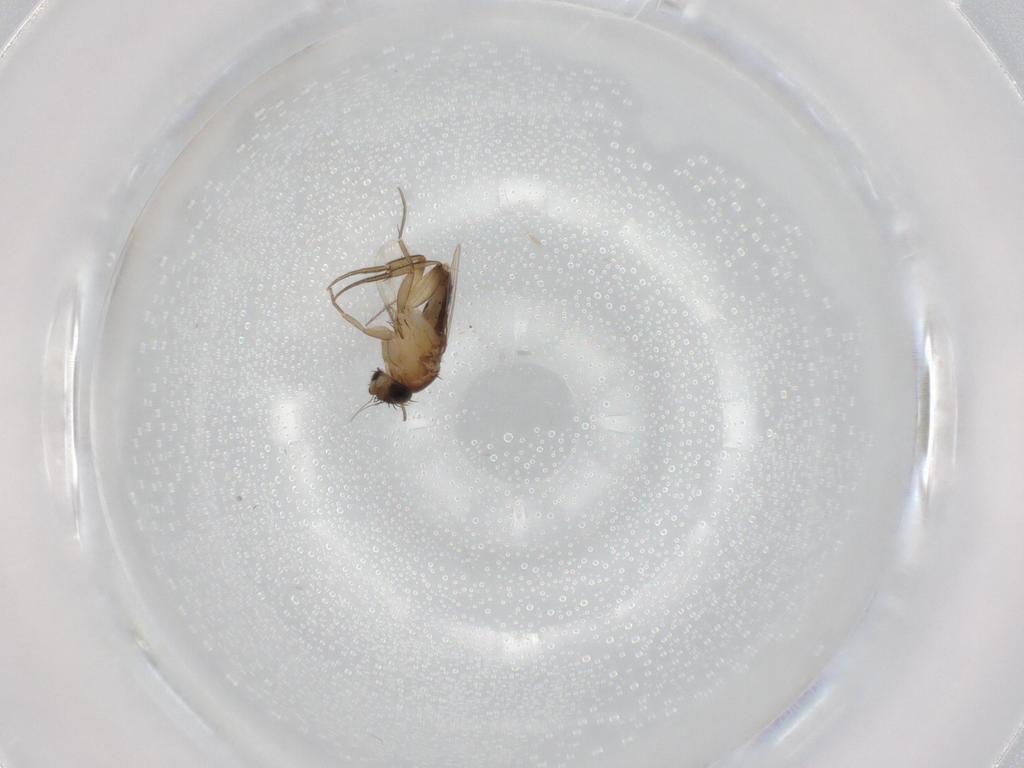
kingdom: Animalia
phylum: Arthropoda
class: Insecta
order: Diptera
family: Phoridae
